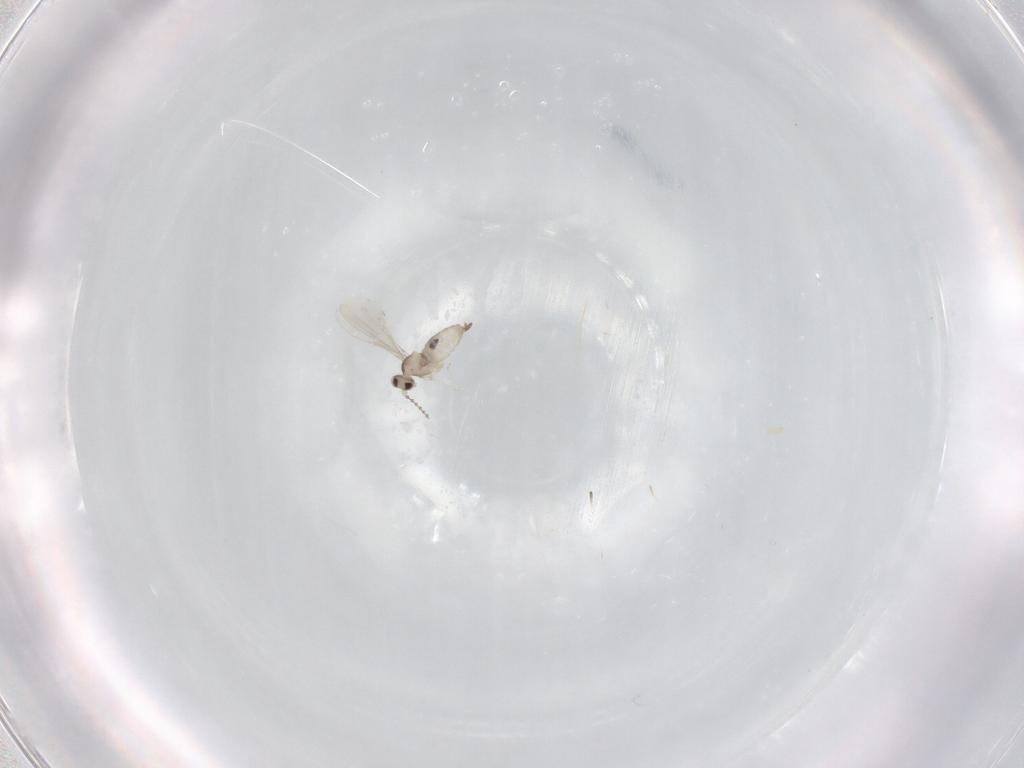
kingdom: Animalia
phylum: Arthropoda
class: Insecta
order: Diptera
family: Cecidomyiidae
